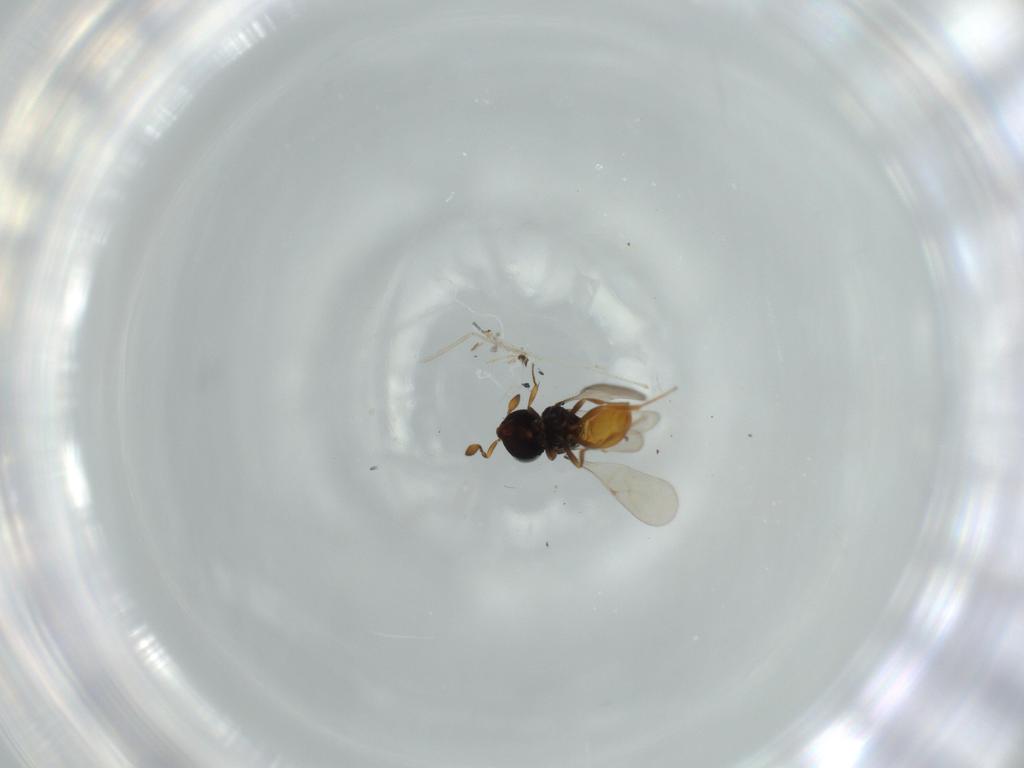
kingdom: Animalia
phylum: Arthropoda
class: Insecta
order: Hymenoptera
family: Scelionidae
